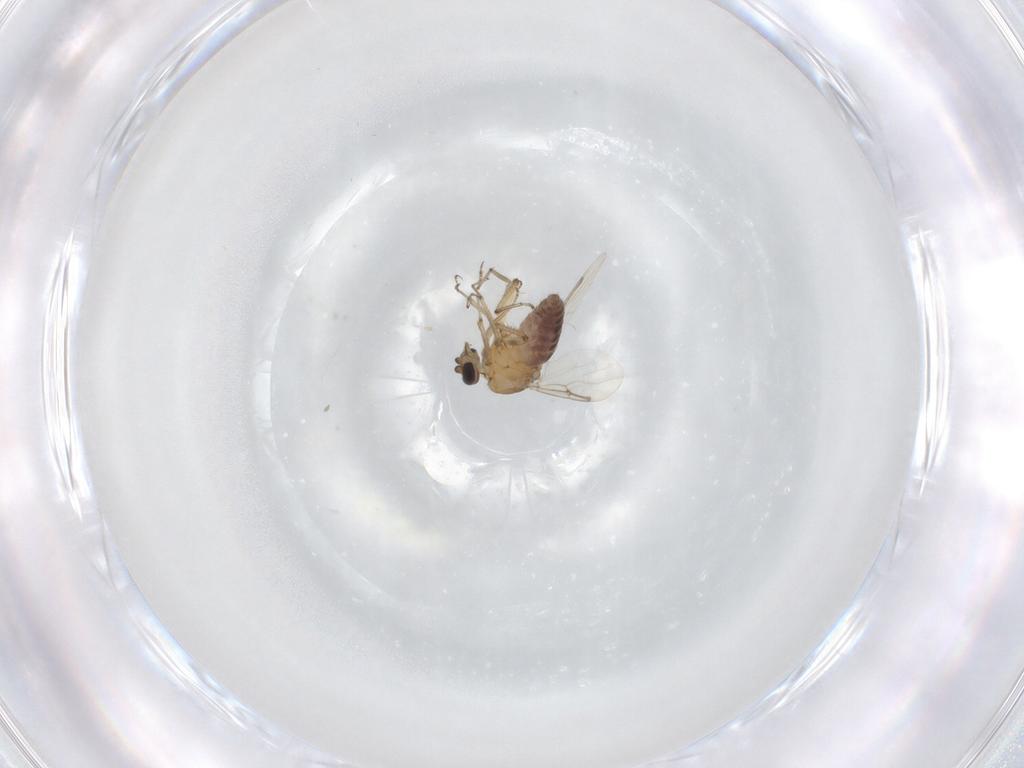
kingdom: Animalia
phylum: Arthropoda
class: Insecta
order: Diptera
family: Ceratopogonidae
